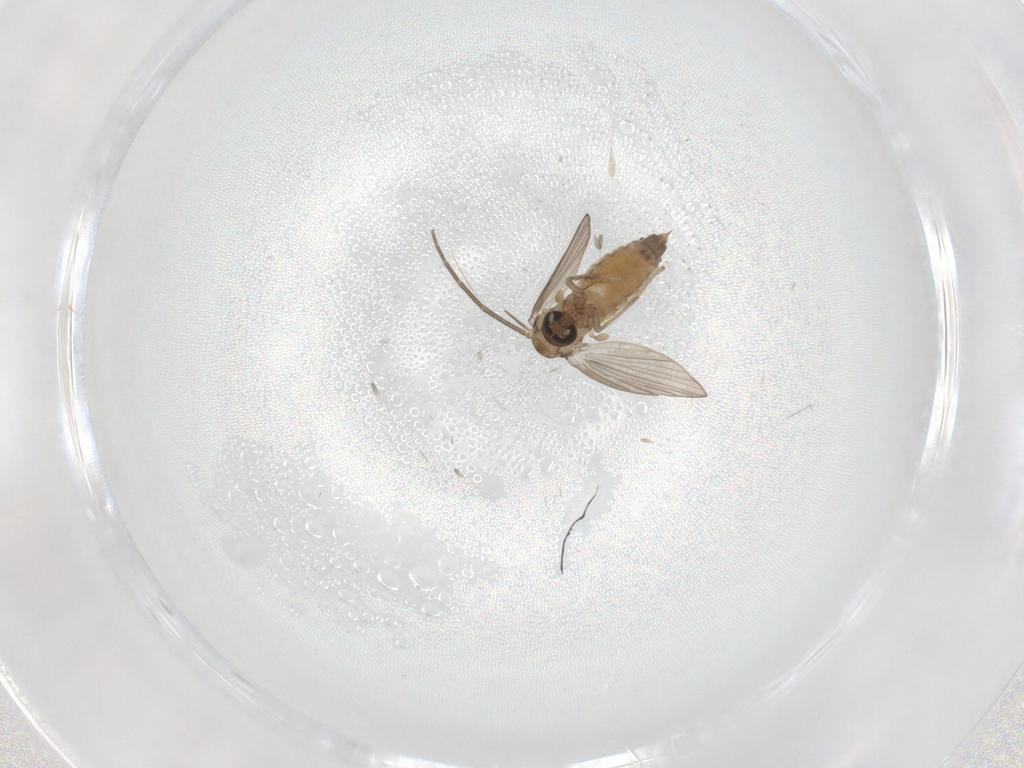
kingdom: Animalia
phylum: Arthropoda
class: Insecta
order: Diptera
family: Psychodidae
